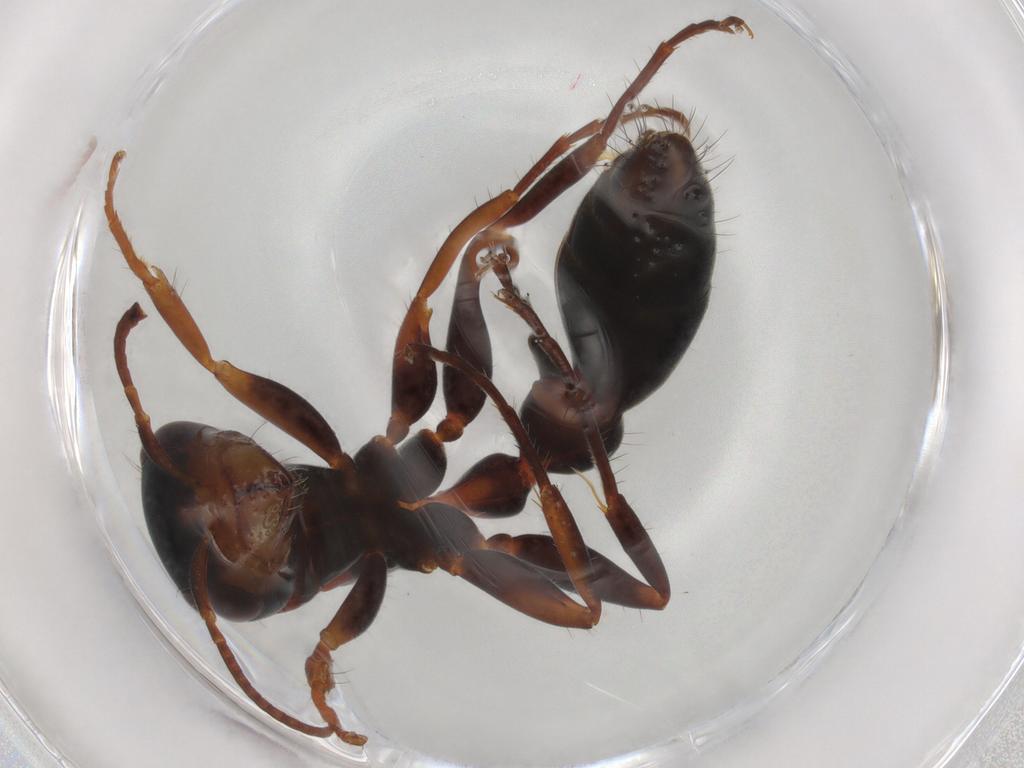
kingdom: Animalia
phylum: Arthropoda
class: Insecta
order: Hymenoptera
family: Formicidae
